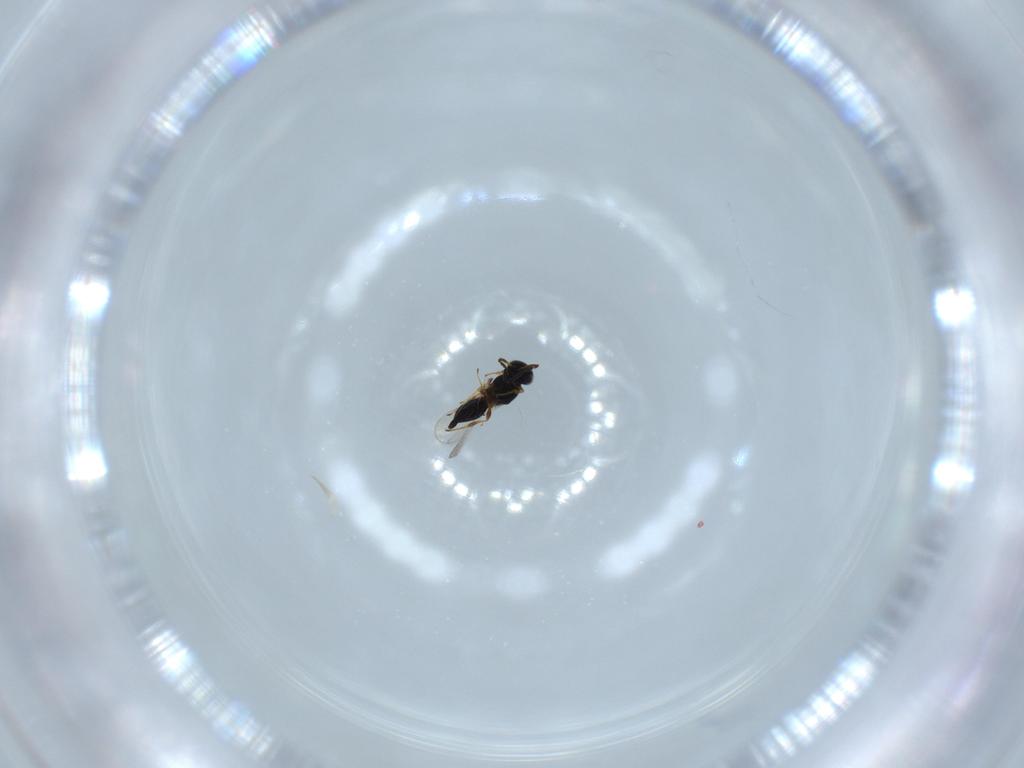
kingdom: Animalia
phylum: Arthropoda
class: Insecta
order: Hymenoptera
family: Platygastridae
